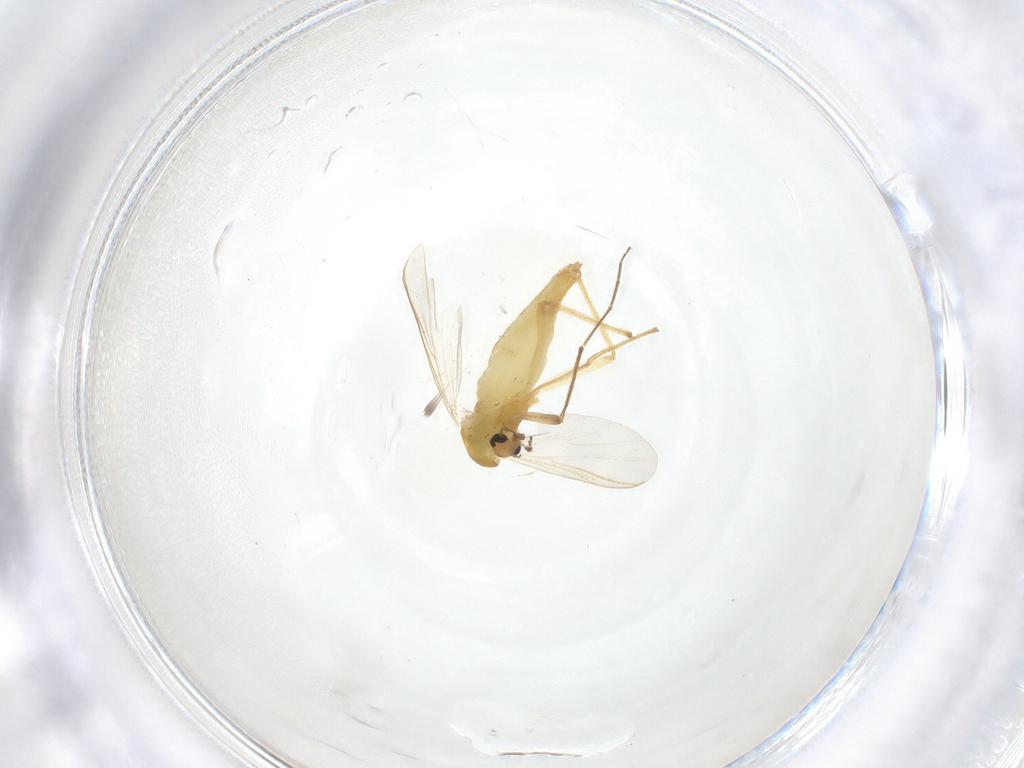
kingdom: Animalia
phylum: Arthropoda
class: Insecta
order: Diptera
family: Chironomidae
